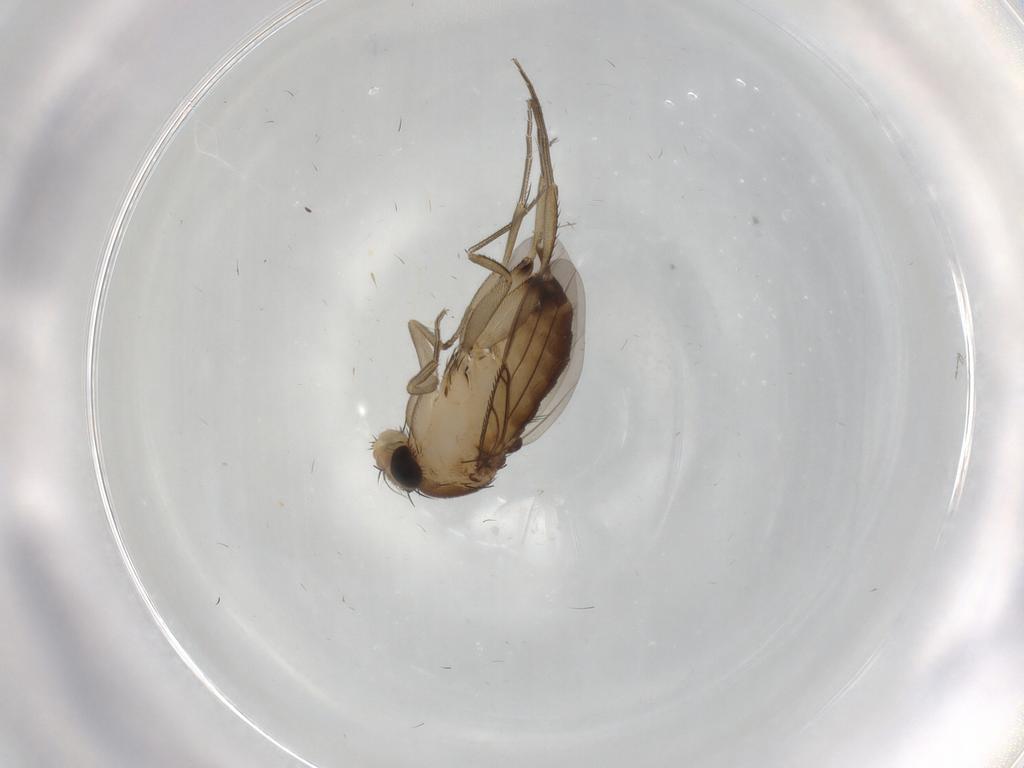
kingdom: Animalia
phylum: Arthropoda
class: Insecta
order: Diptera
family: Phoridae
